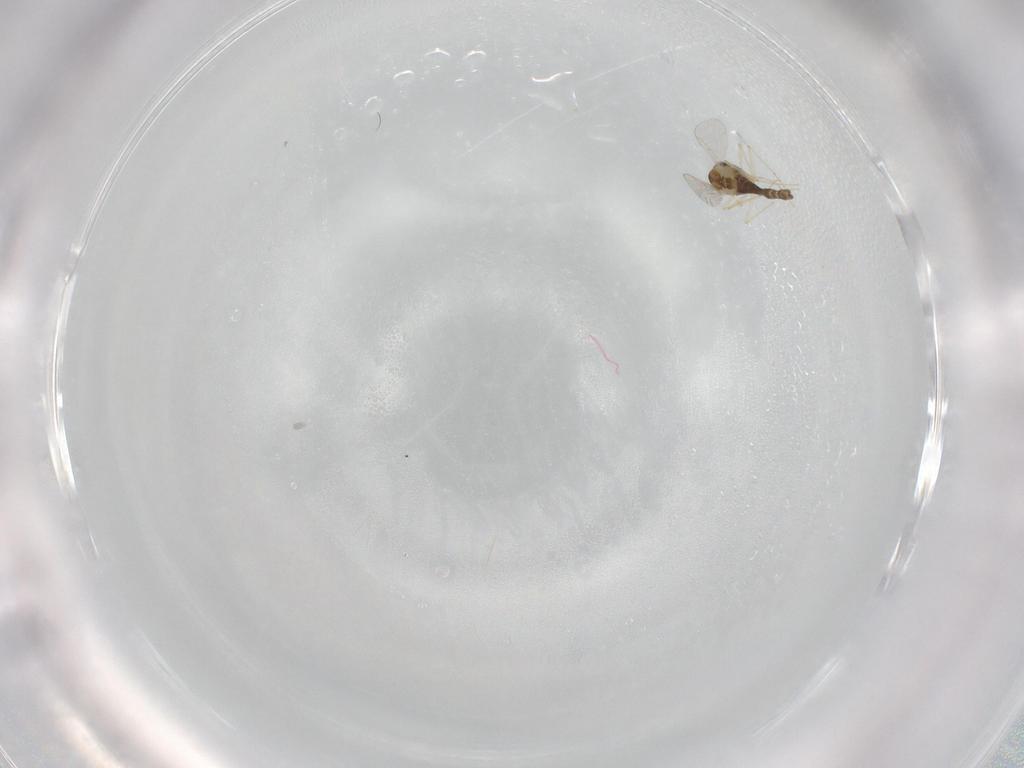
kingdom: Animalia
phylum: Arthropoda
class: Insecta
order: Diptera
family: Chironomidae
